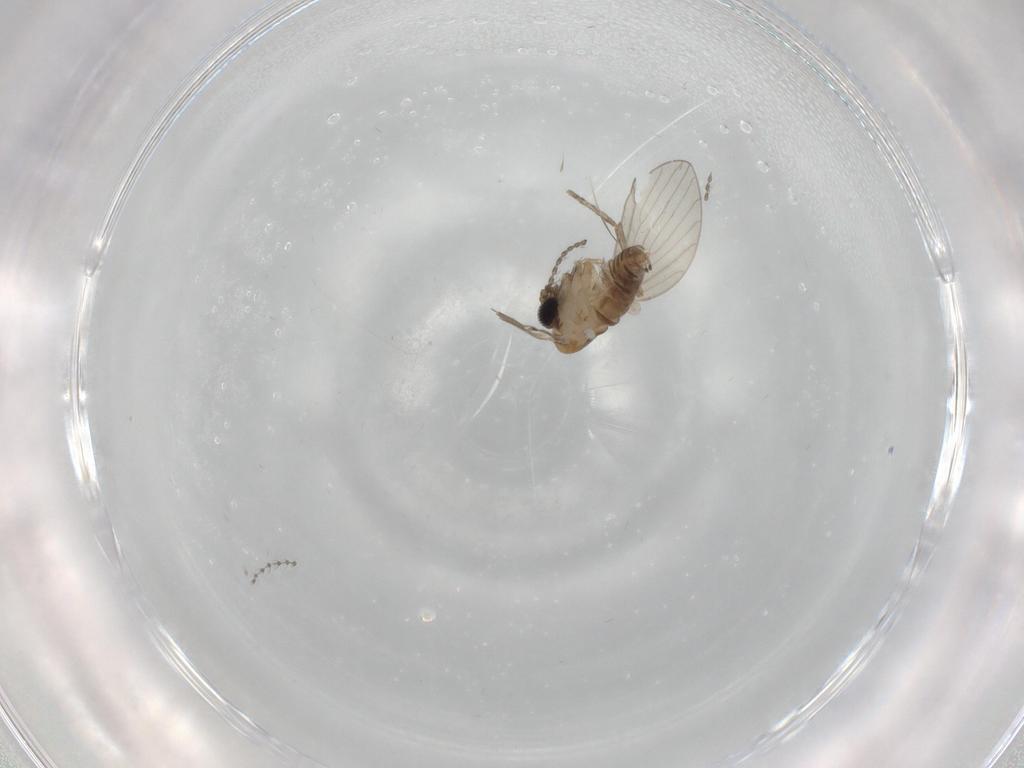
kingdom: Animalia
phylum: Arthropoda
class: Insecta
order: Diptera
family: Psychodidae
